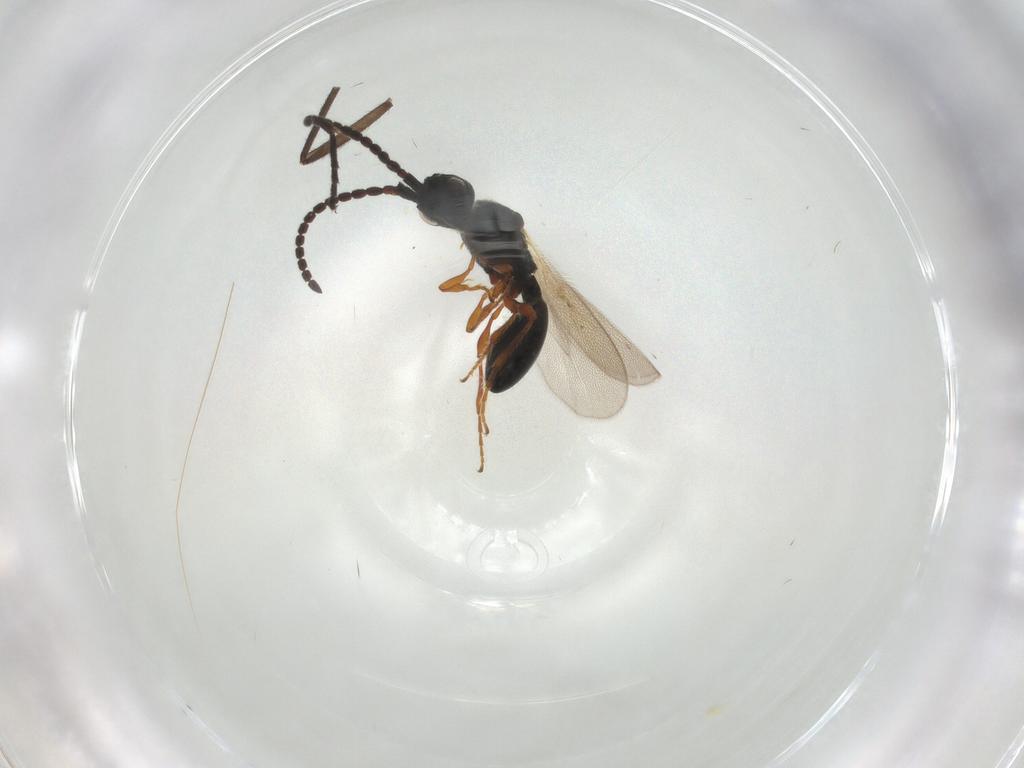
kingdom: Animalia
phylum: Arthropoda
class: Insecta
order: Hymenoptera
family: Diapriidae
